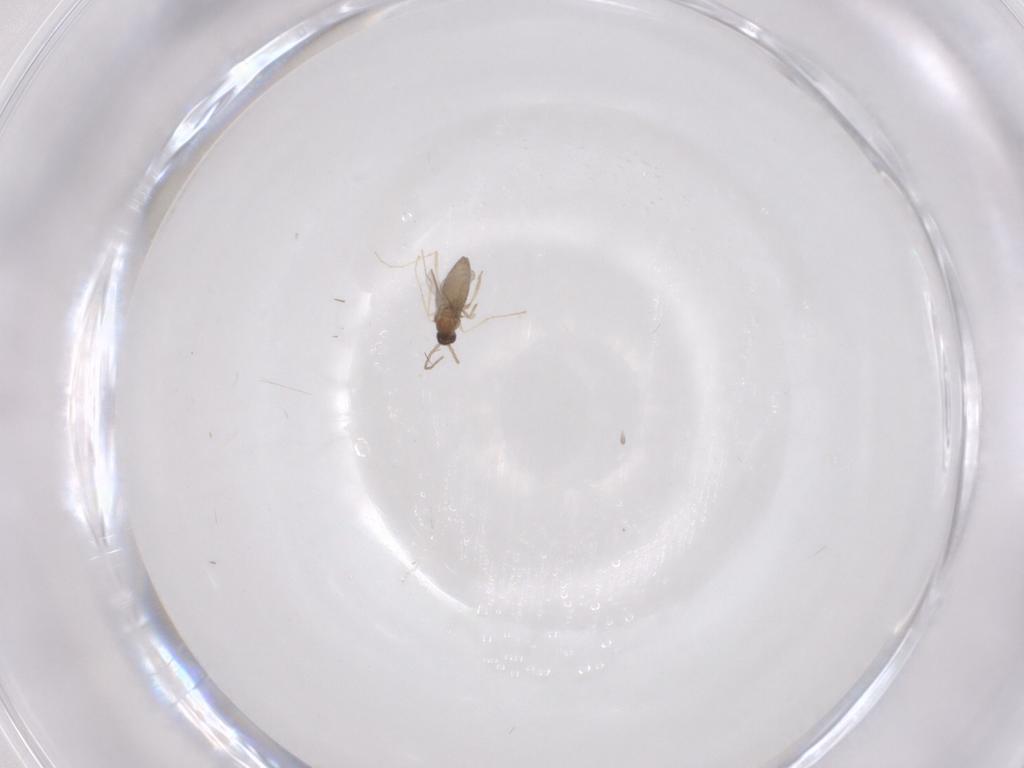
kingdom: Animalia
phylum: Arthropoda
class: Insecta
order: Diptera
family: Cecidomyiidae
